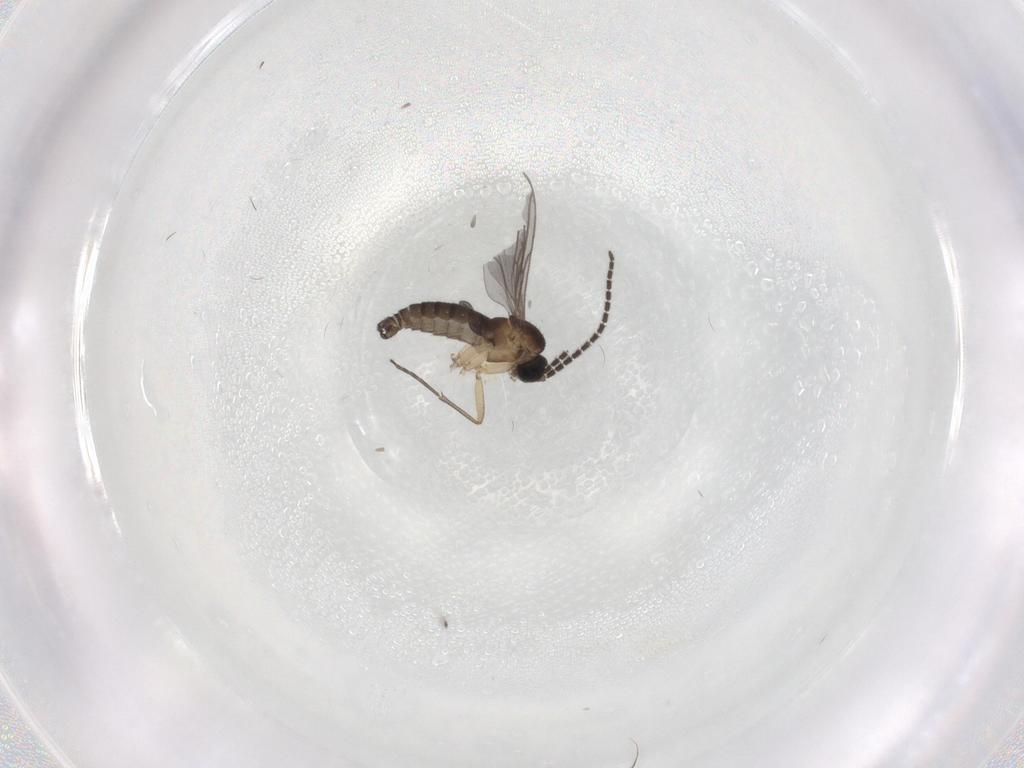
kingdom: Animalia
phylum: Arthropoda
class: Insecta
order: Diptera
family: Sciaridae
